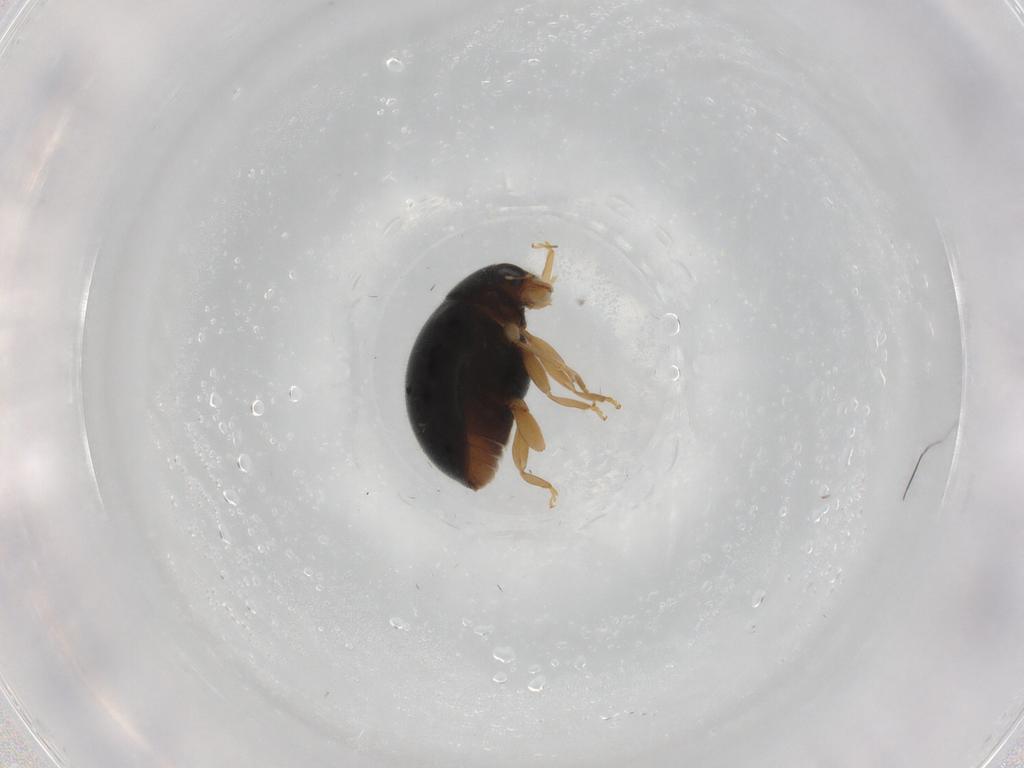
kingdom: Animalia
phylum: Arthropoda
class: Insecta
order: Coleoptera
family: Coccinellidae
